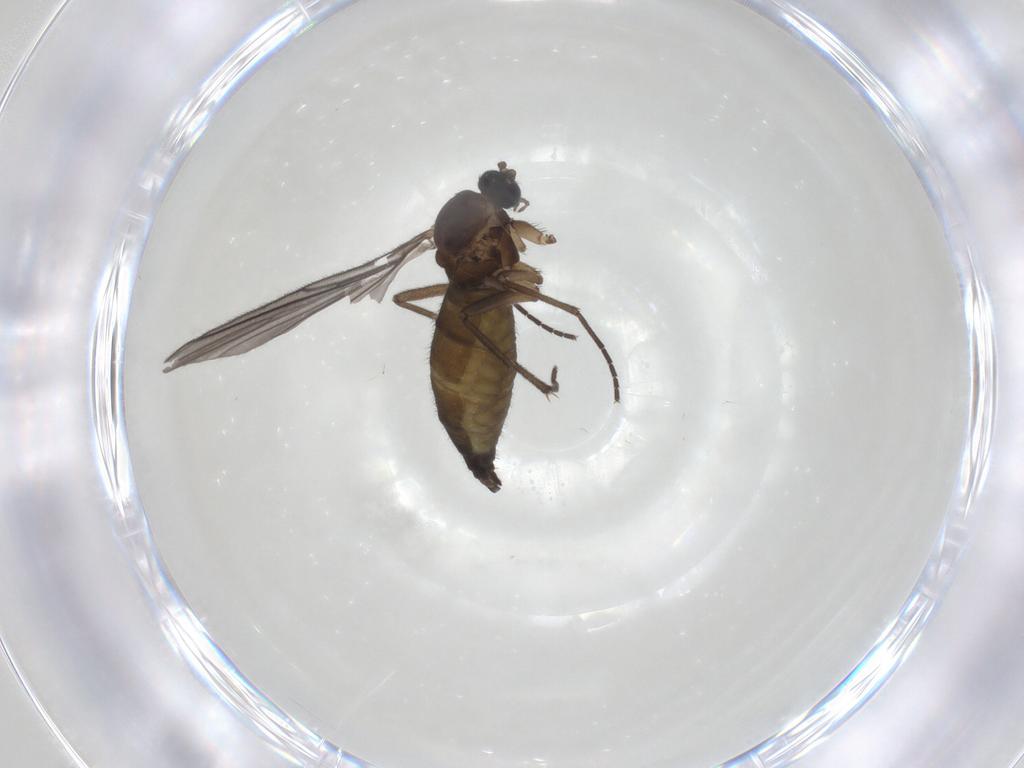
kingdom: Animalia
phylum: Arthropoda
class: Insecta
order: Diptera
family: Sciaridae
